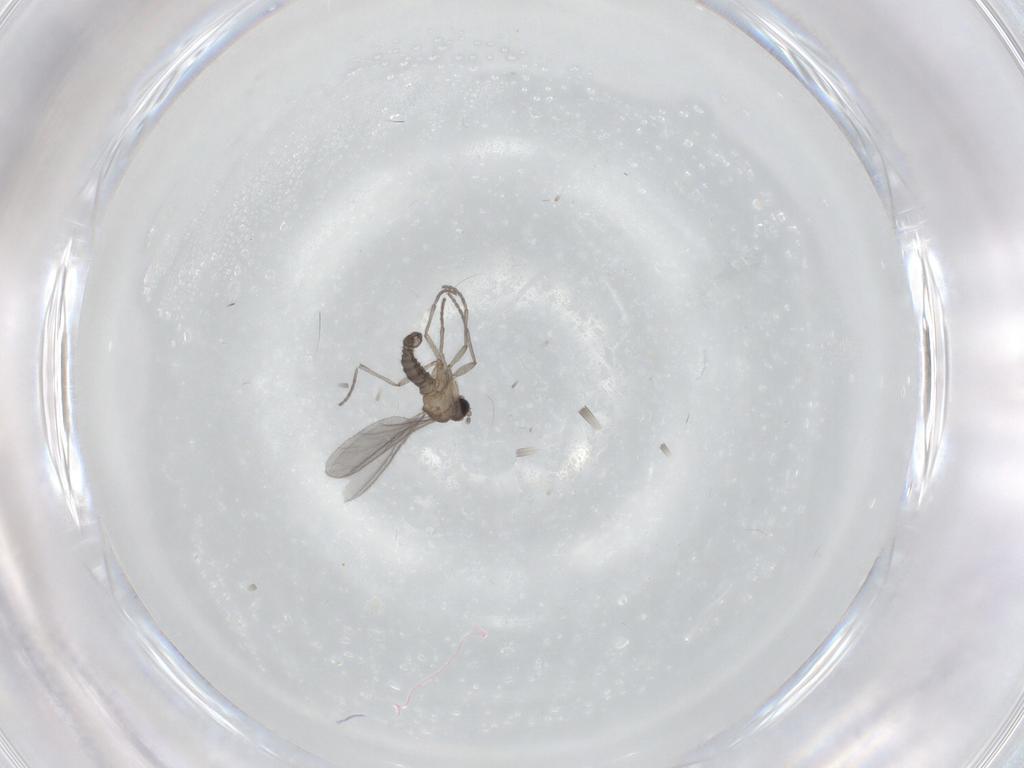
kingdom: Animalia
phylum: Arthropoda
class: Insecta
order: Diptera
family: Sciaridae
